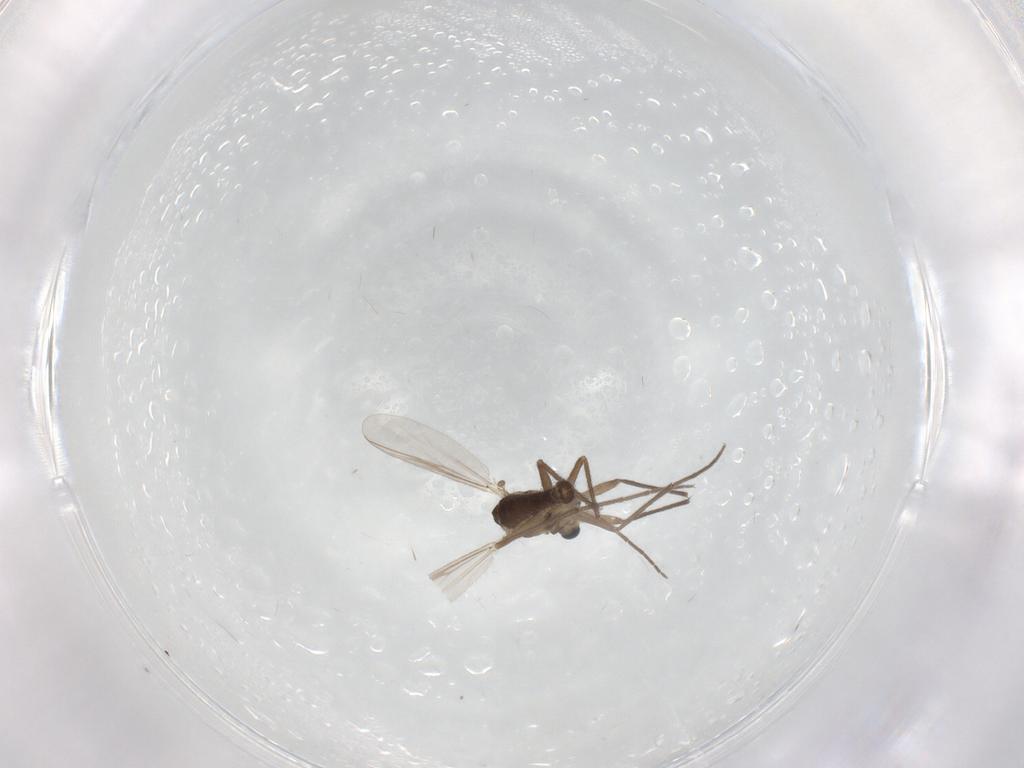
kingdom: Animalia
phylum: Arthropoda
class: Insecta
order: Diptera
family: Chironomidae
